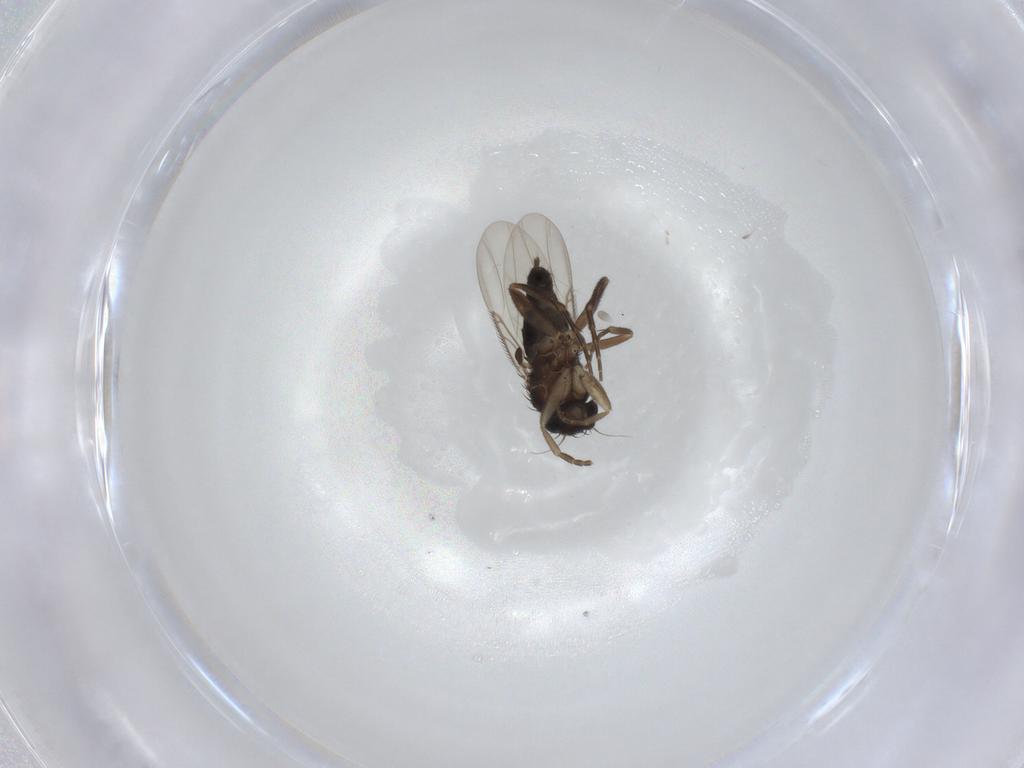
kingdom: Animalia
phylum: Arthropoda
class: Insecta
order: Diptera
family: Phoridae
